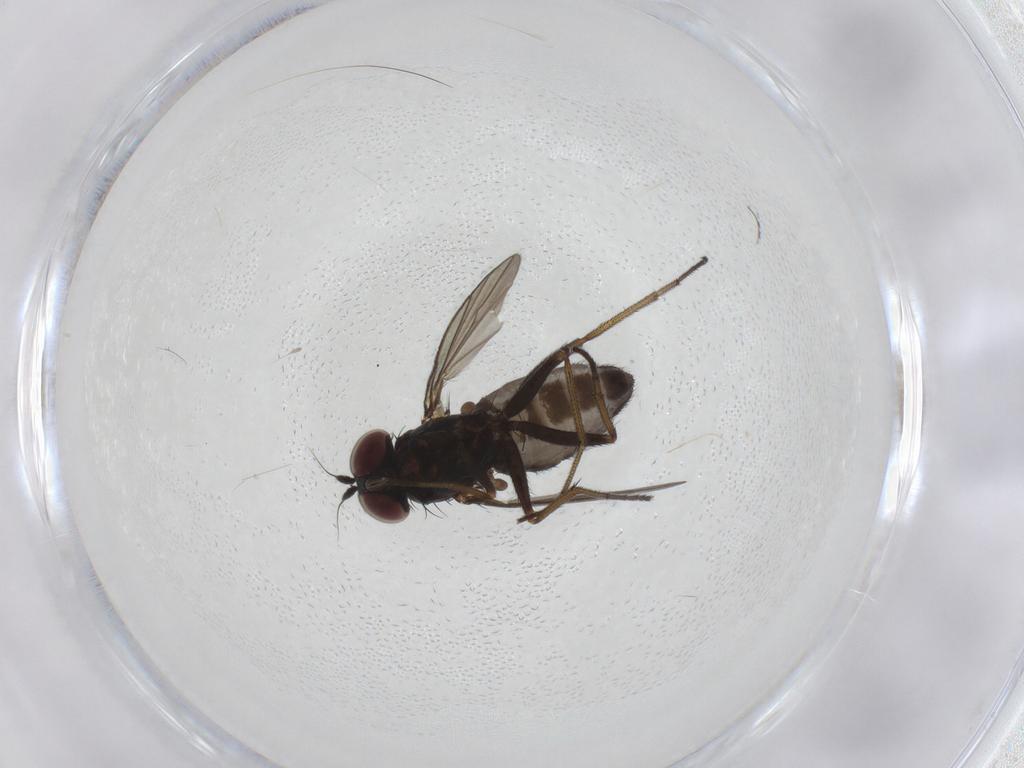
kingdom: Animalia
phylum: Arthropoda
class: Insecta
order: Diptera
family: Dolichopodidae
